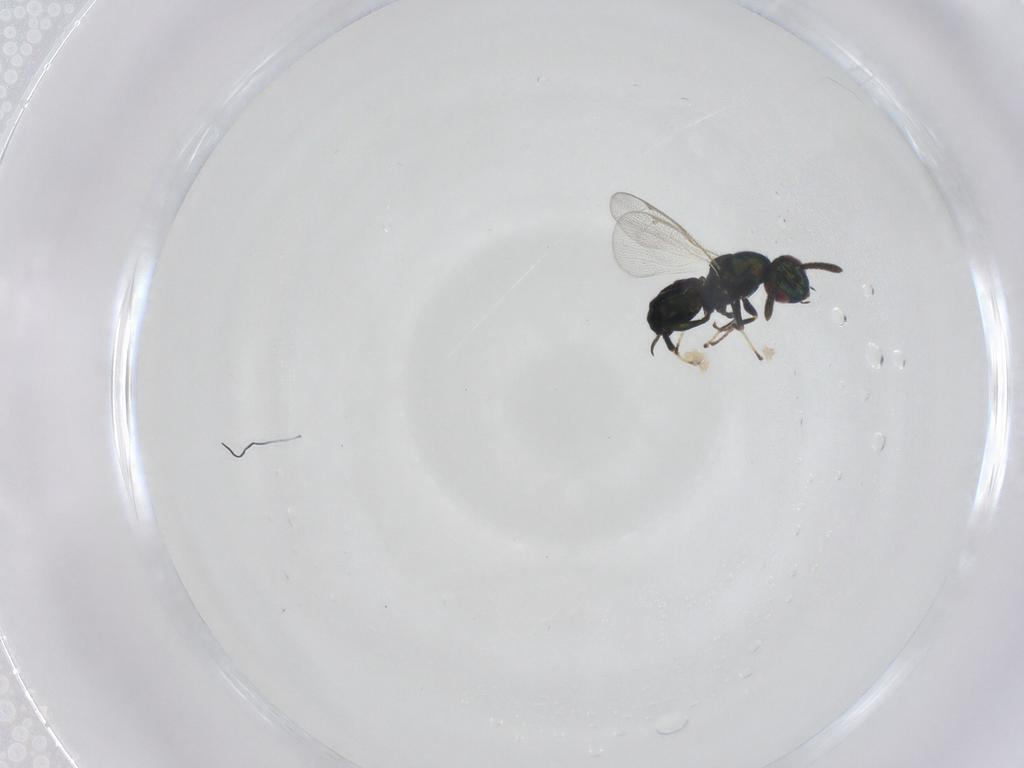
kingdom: Animalia
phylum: Arthropoda
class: Insecta
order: Hymenoptera
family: Torymidae
